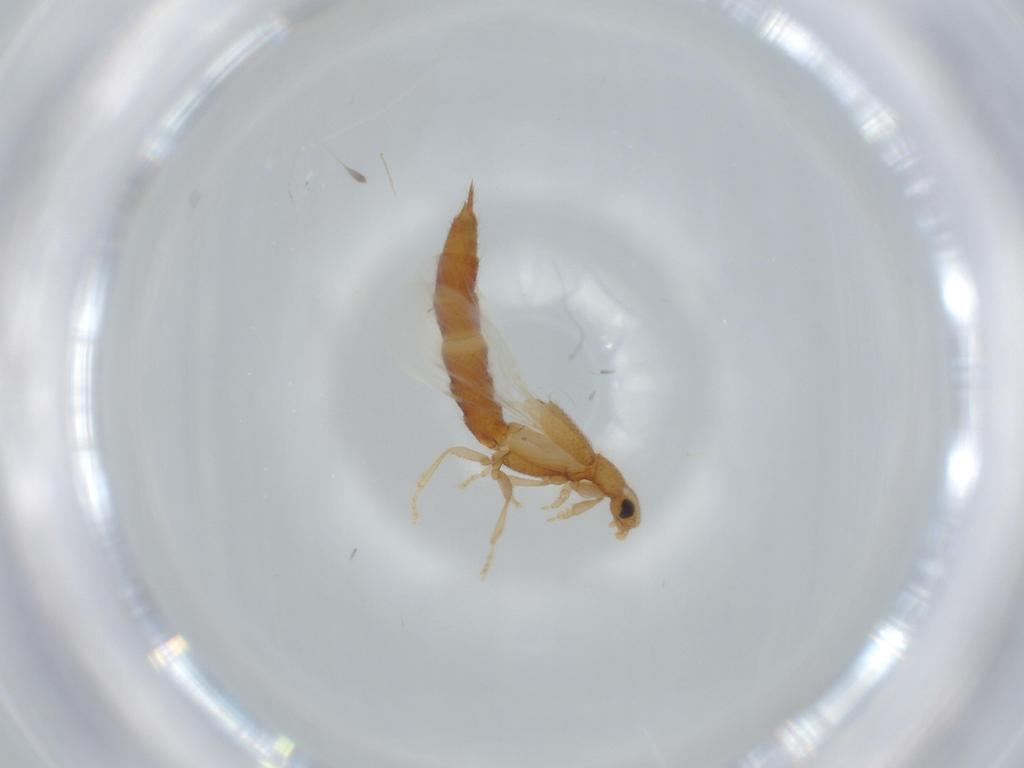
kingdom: Animalia
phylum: Arthropoda
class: Insecta
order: Coleoptera
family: Staphylinidae
